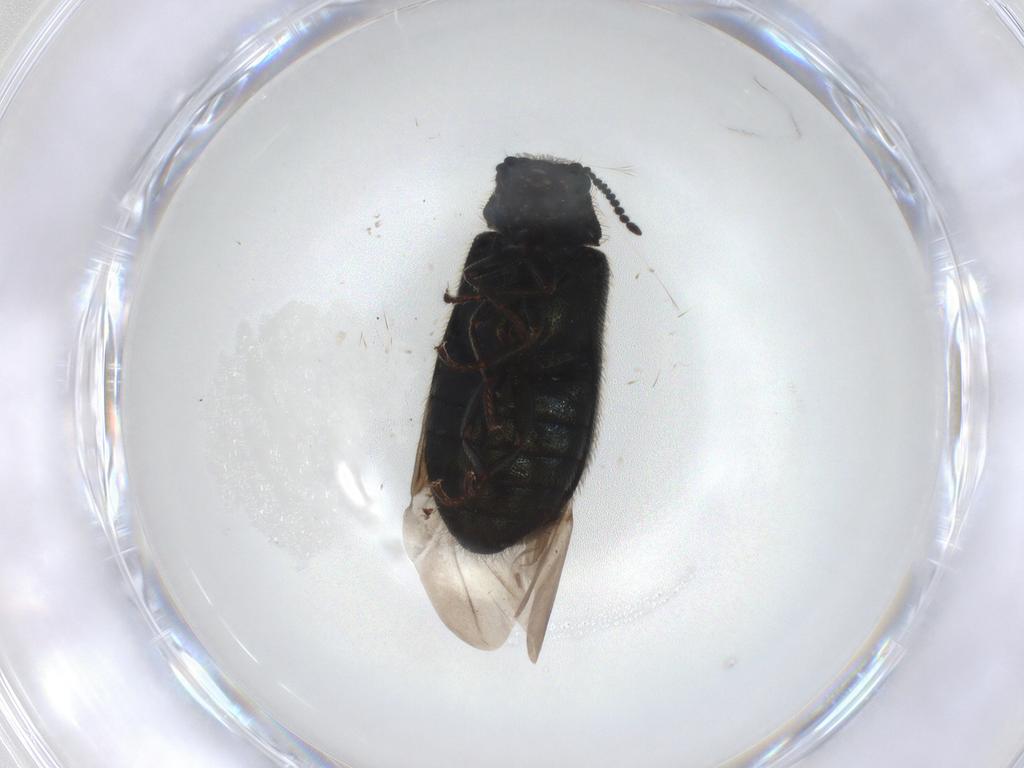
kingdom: Animalia
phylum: Arthropoda
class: Insecta
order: Coleoptera
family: Melyridae
